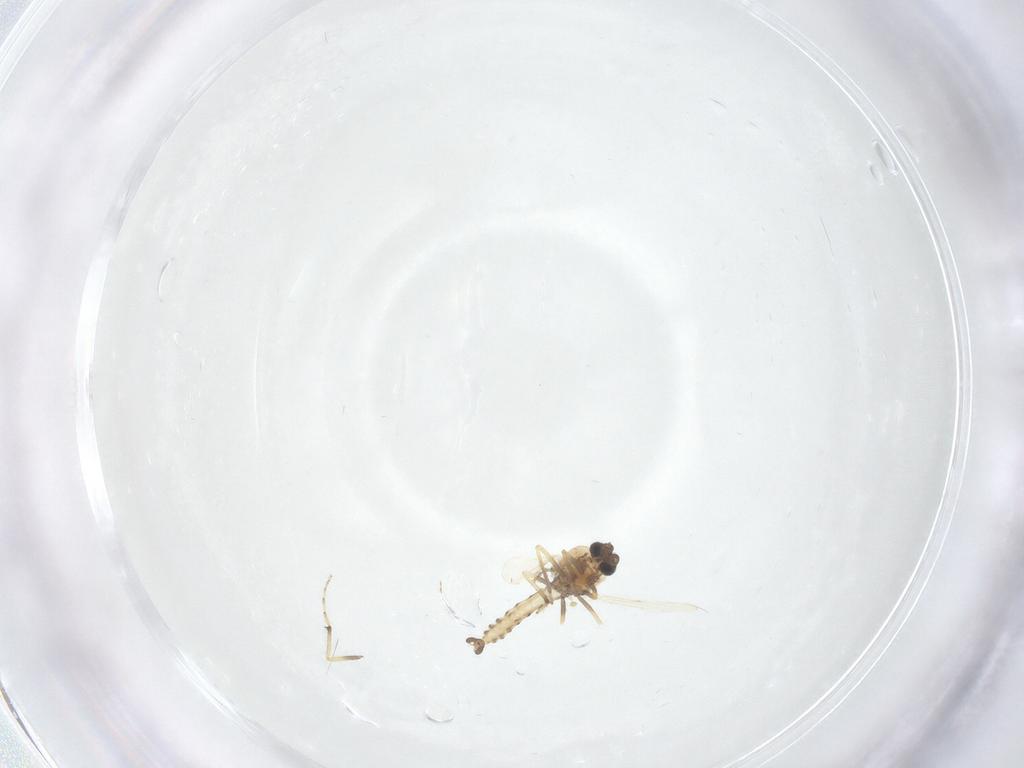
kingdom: Animalia
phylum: Arthropoda
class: Insecta
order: Diptera
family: Ceratopogonidae
